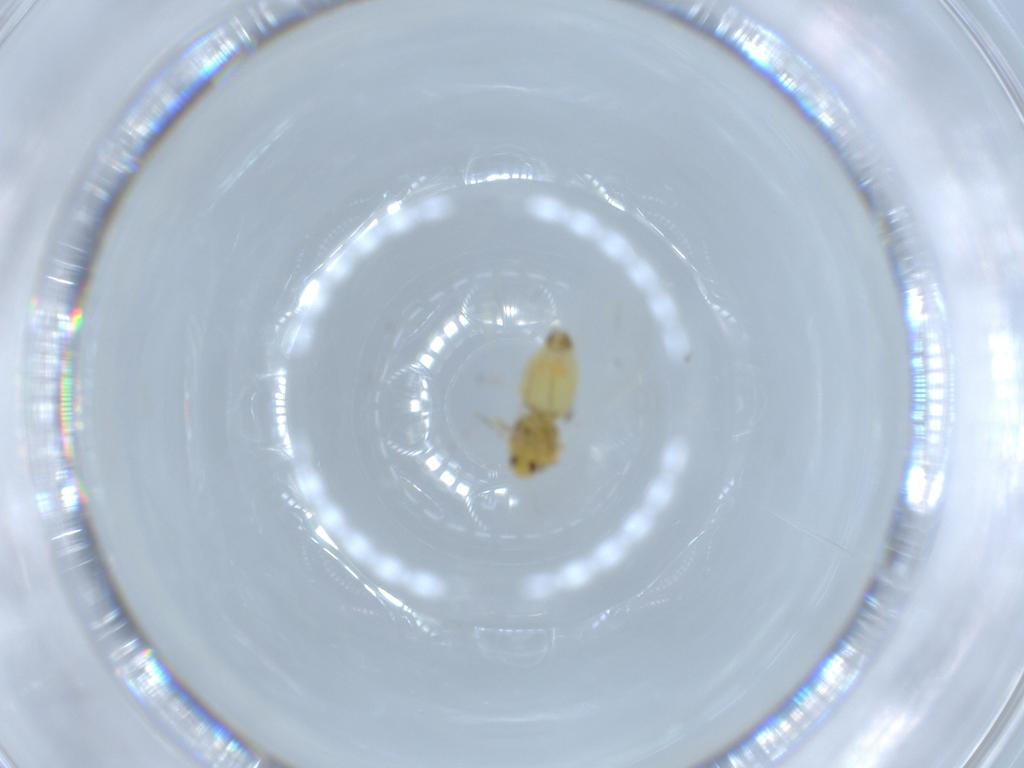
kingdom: Animalia
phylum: Arthropoda
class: Insecta
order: Hemiptera
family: Aleyrodidae
